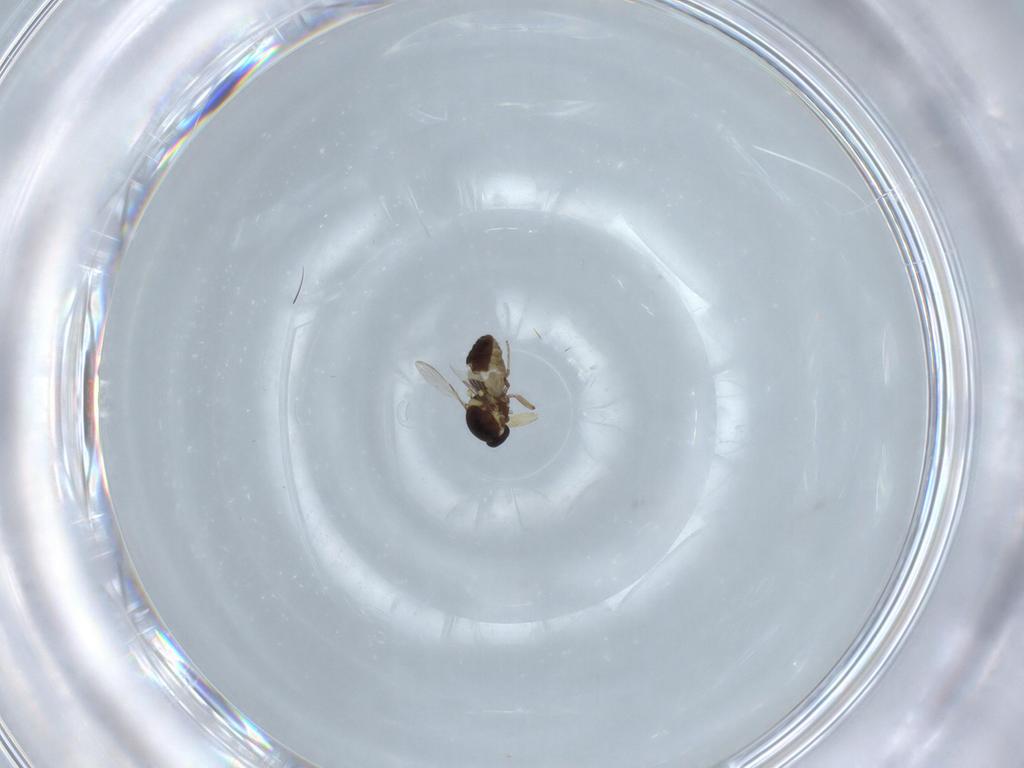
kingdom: Animalia
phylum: Arthropoda
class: Insecta
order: Diptera
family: Ceratopogonidae
